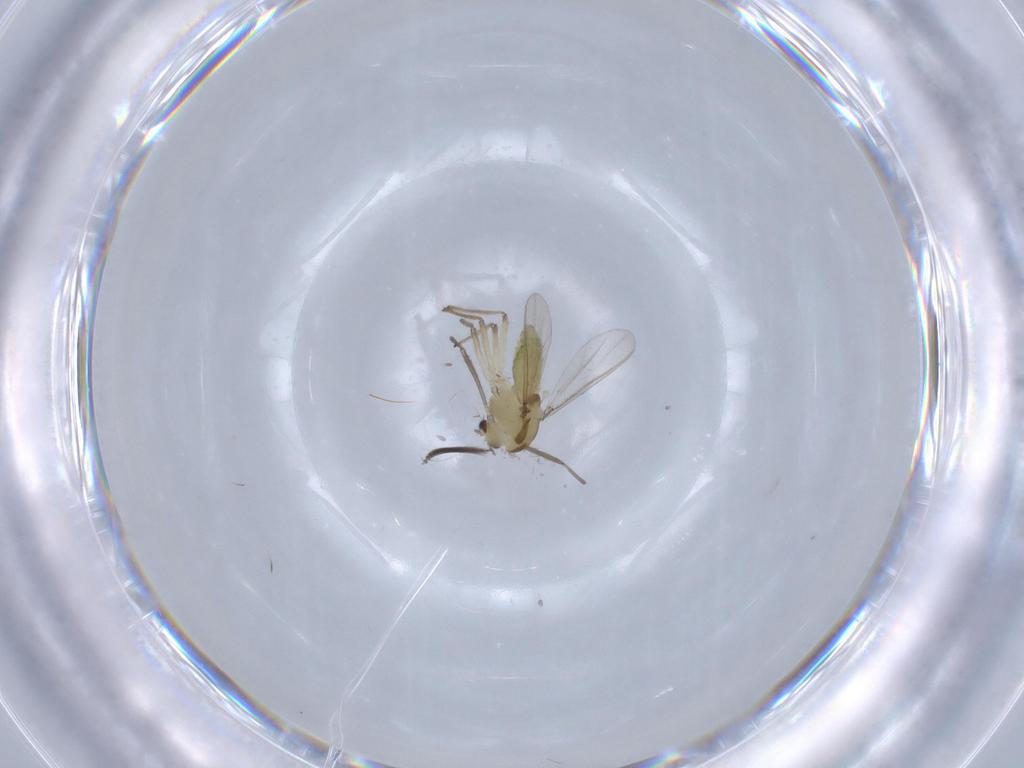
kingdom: Animalia
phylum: Arthropoda
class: Insecta
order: Diptera
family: Chironomidae
